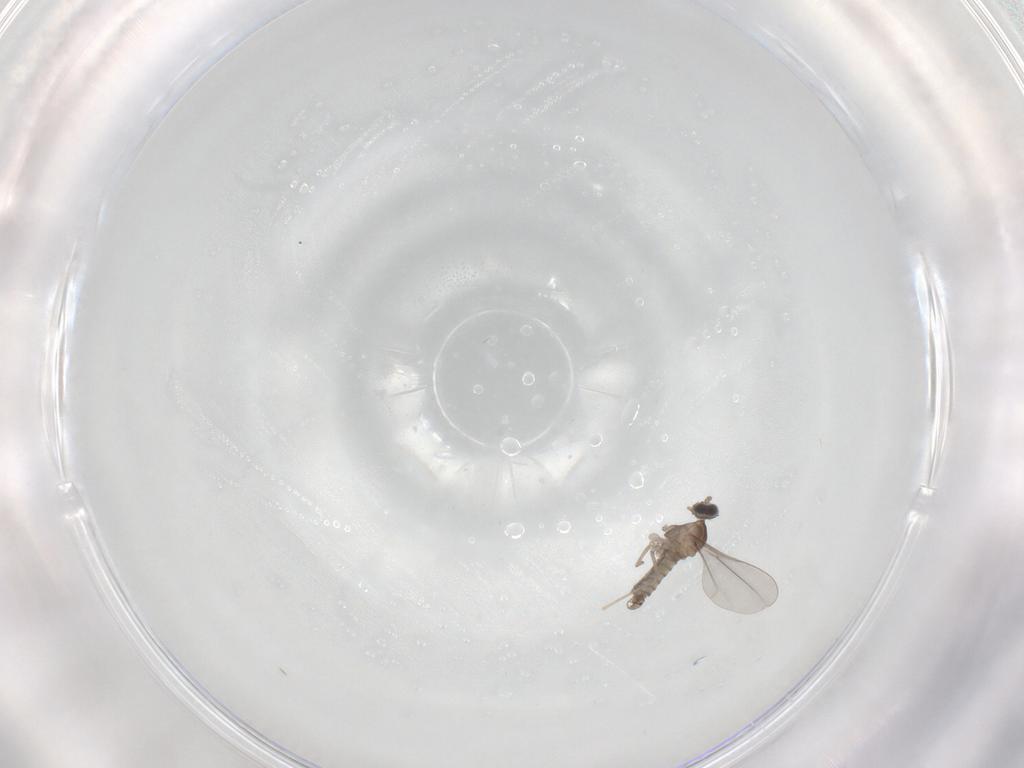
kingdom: Animalia
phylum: Arthropoda
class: Insecta
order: Diptera
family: Cecidomyiidae
